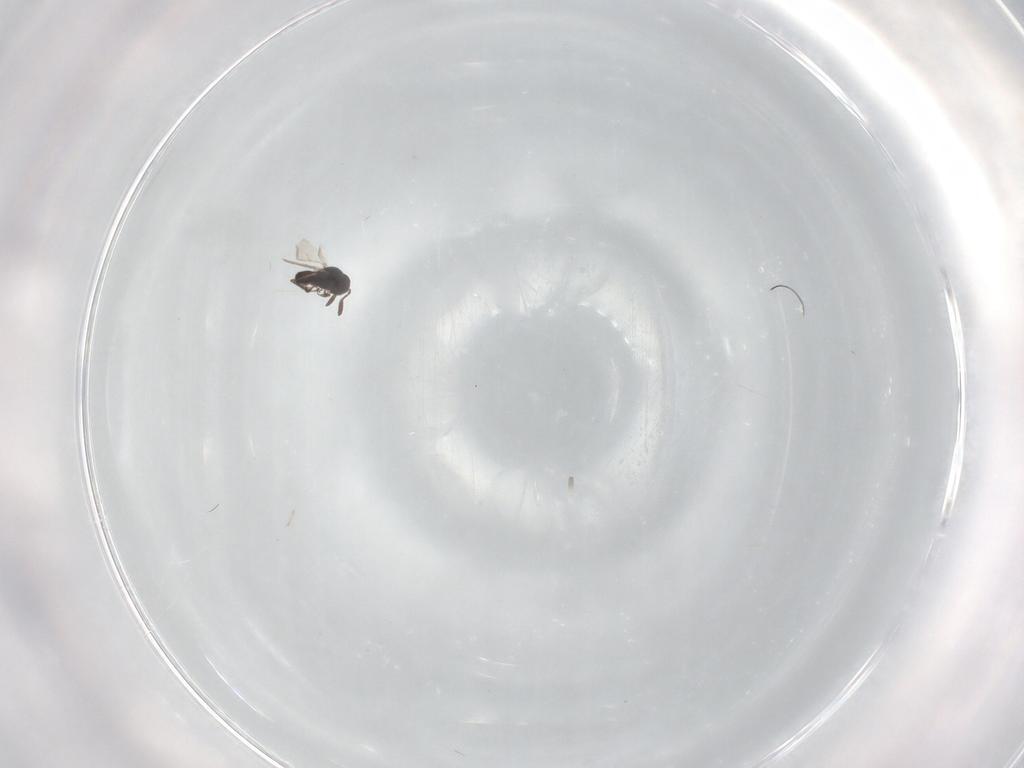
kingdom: Animalia
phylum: Arthropoda
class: Insecta
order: Hymenoptera
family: Scelionidae
